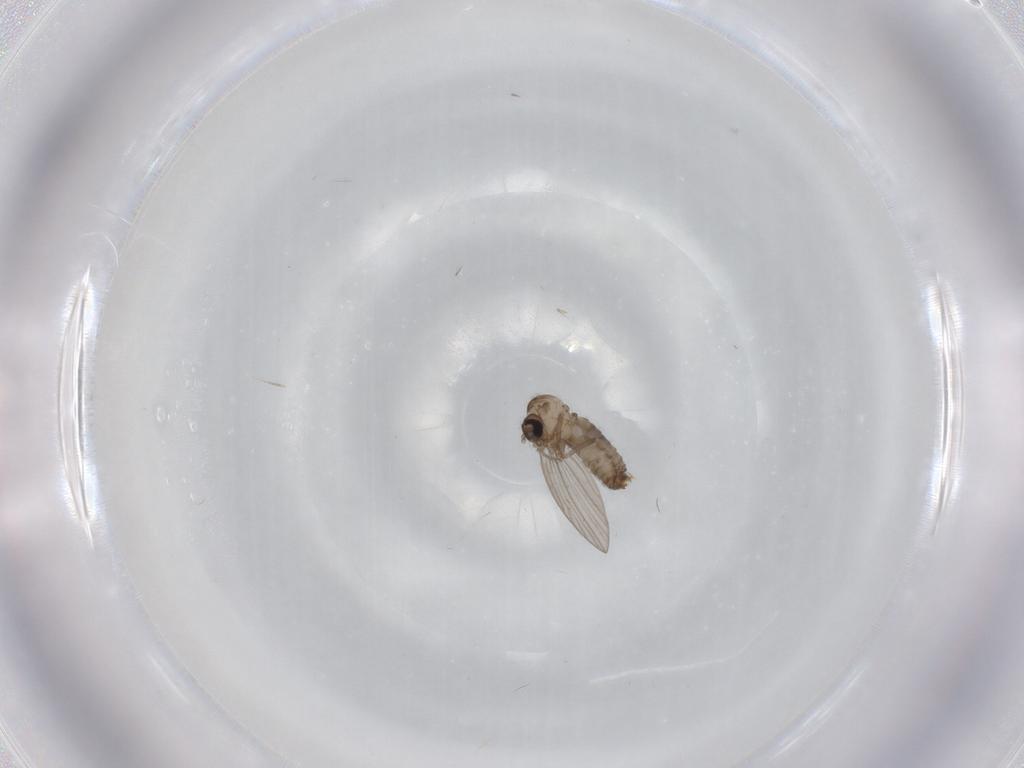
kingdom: Animalia
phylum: Arthropoda
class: Insecta
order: Diptera
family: Psychodidae
